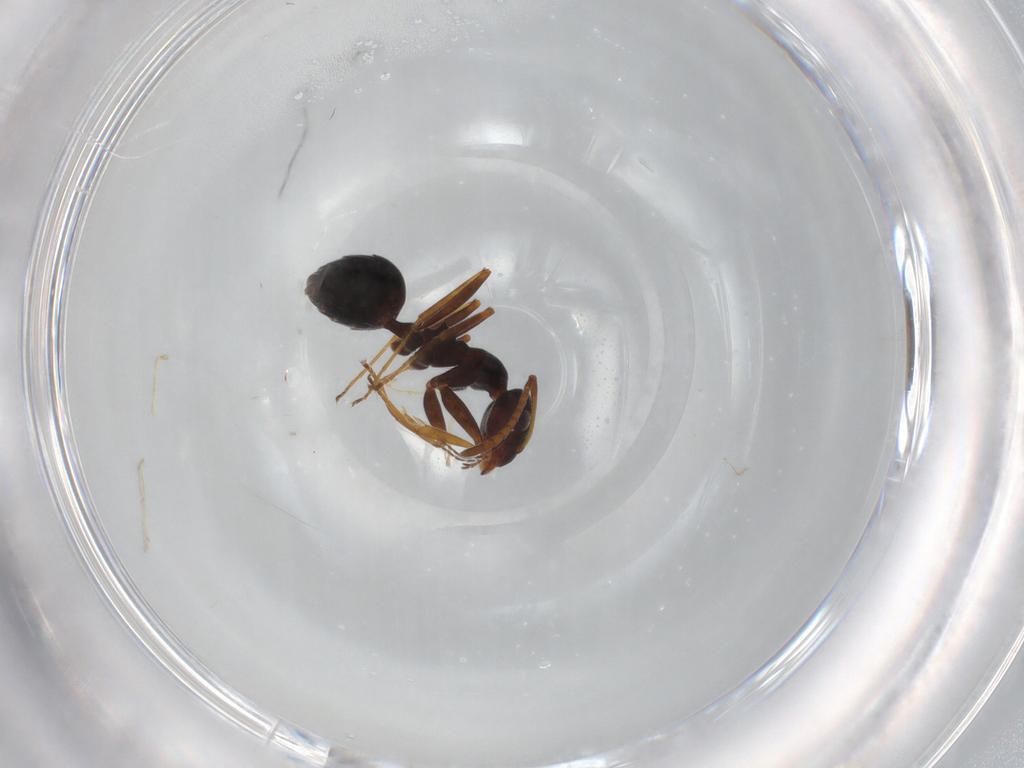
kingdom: Animalia
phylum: Arthropoda
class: Insecta
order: Hymenoptera
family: Formicidae
